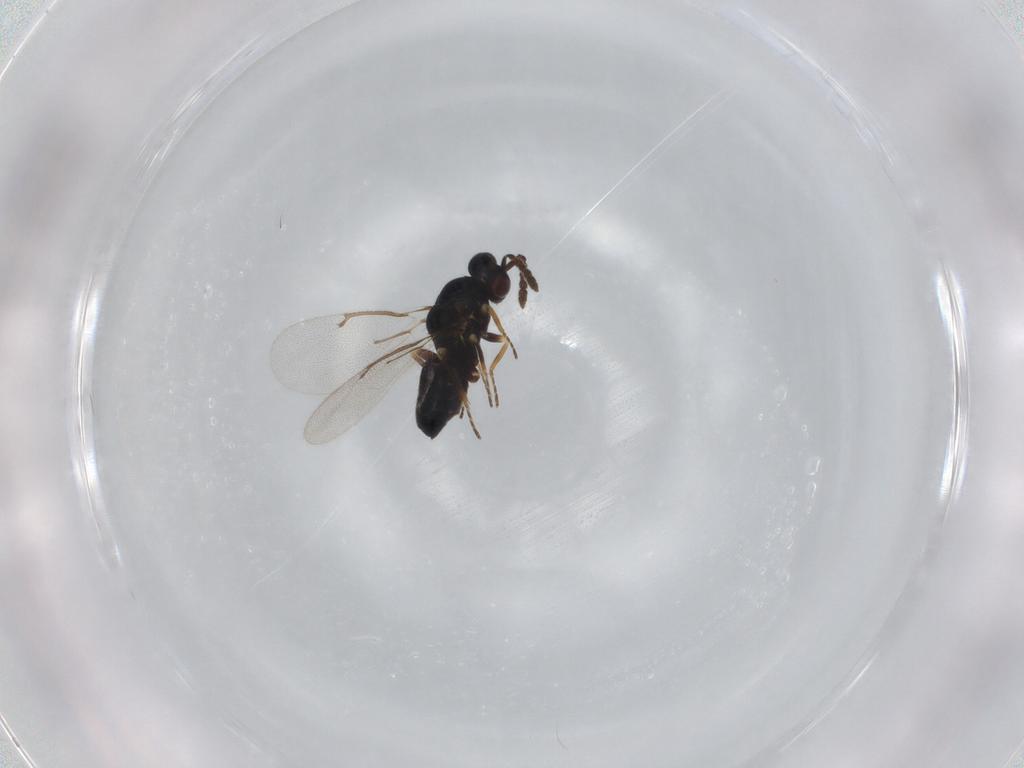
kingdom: Animalia
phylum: Arthropoda
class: Insecta
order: Hymenoptera
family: Eulophidae
